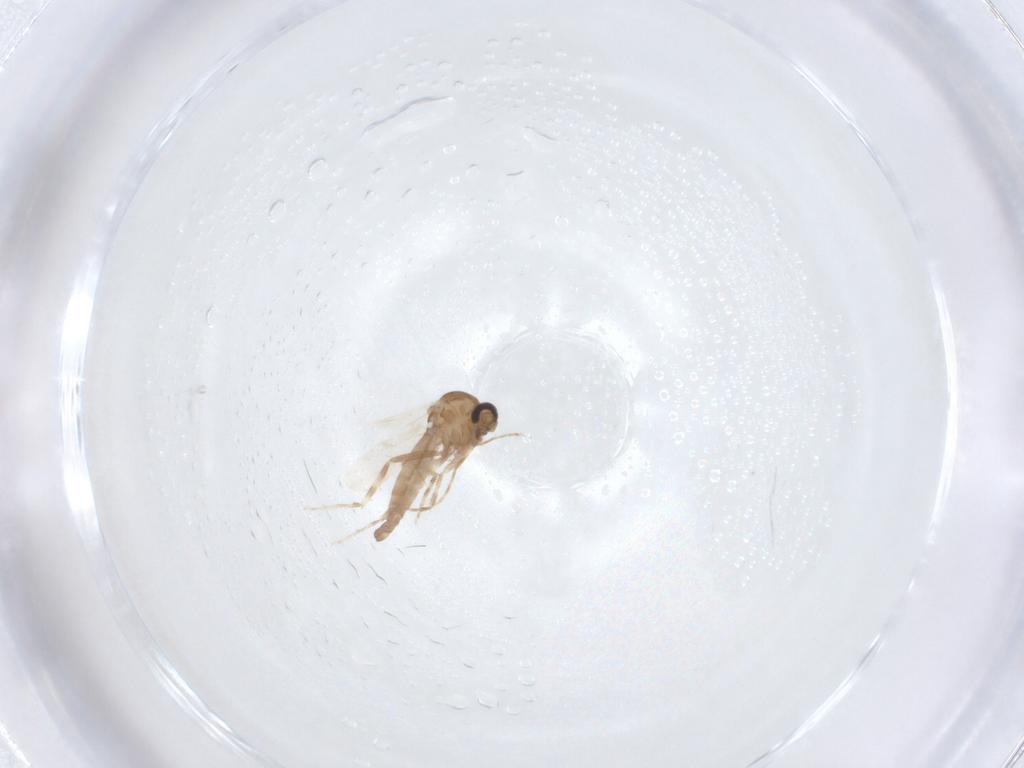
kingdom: Animalia
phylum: Arthropoda
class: Insecta
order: Diptera
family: Ceratopogonidae
